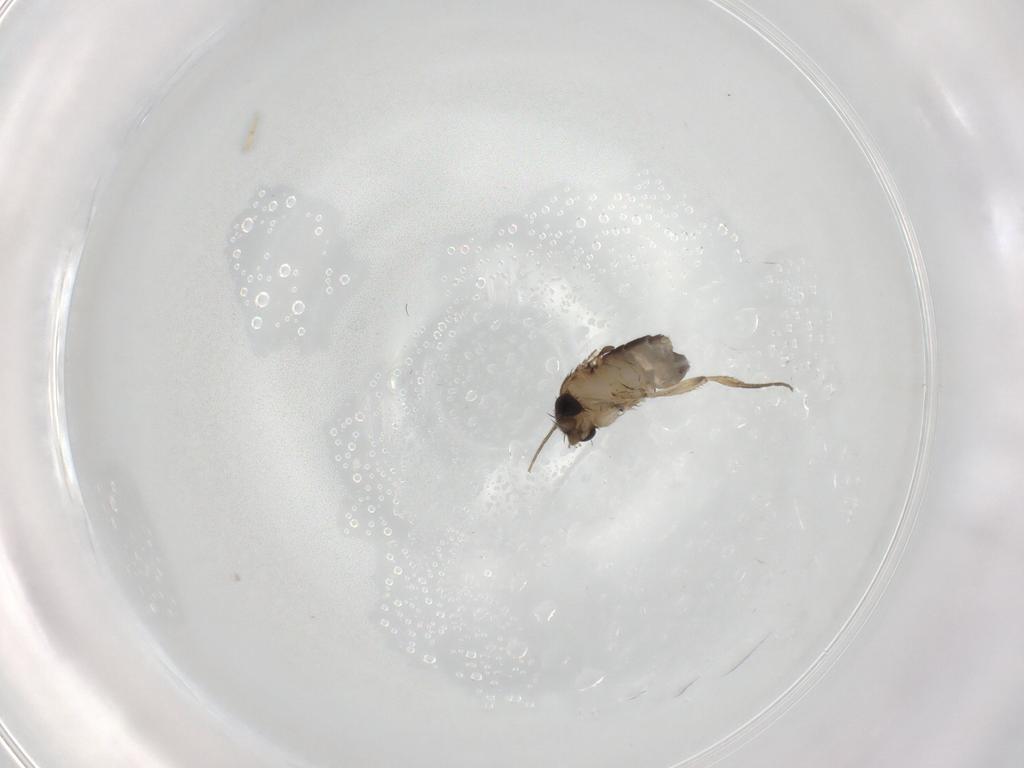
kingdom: Animalia
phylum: Arthropoda
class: Insecta
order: Diptera
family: Phoridae
